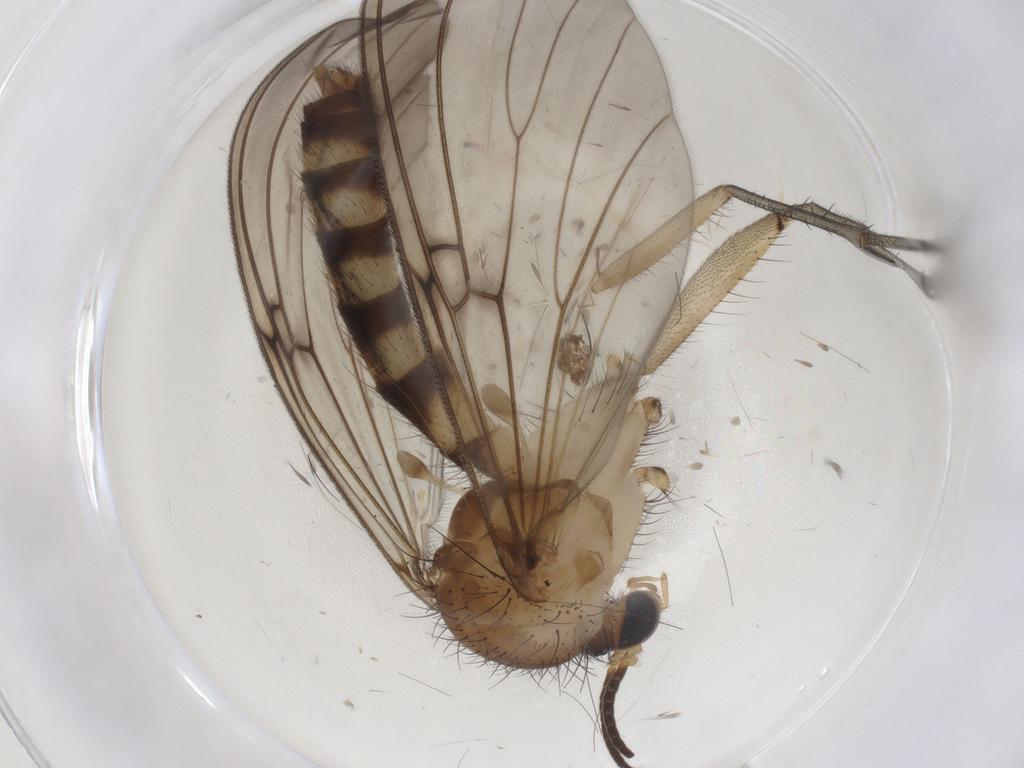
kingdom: Animalia
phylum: Arthropoda
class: Insecta
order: Diptera
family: Mycetophilidae
